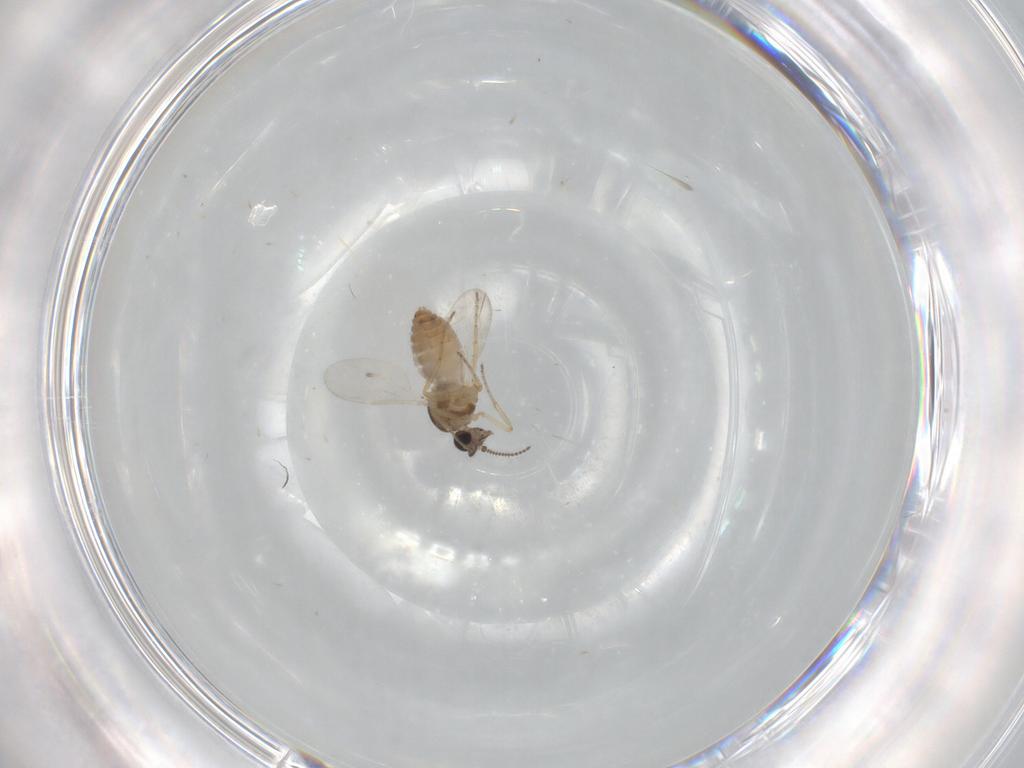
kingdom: Animalia
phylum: Arthropoda
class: Insecta
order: Diptera
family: Ceratopogonidae
